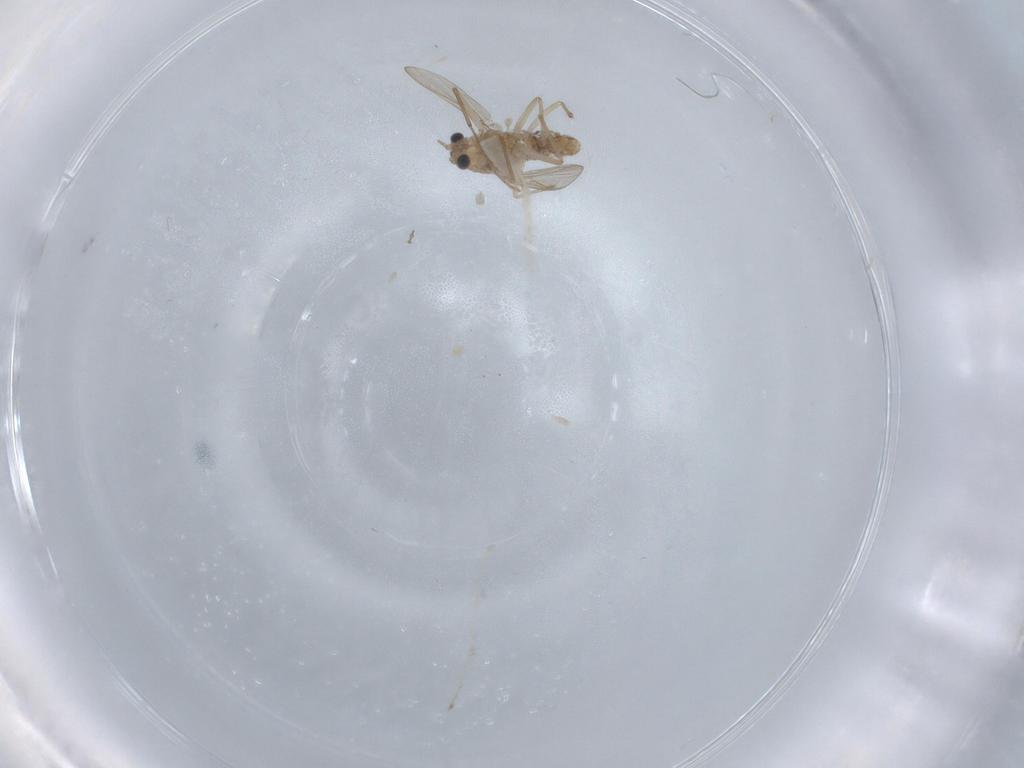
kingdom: Animalia
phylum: Arthropoda
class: Insecta
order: Diptera
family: Chironomidae
